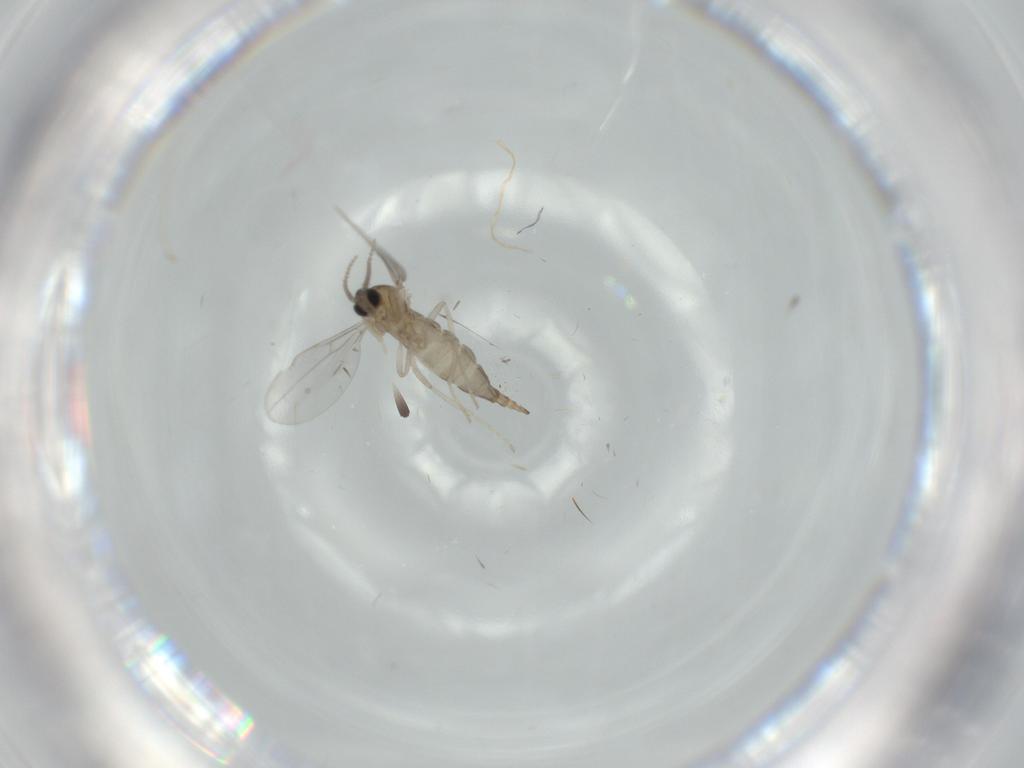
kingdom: Animalia
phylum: Arthropoda
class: Insecta
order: Diptera
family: Cecidomyiidae
